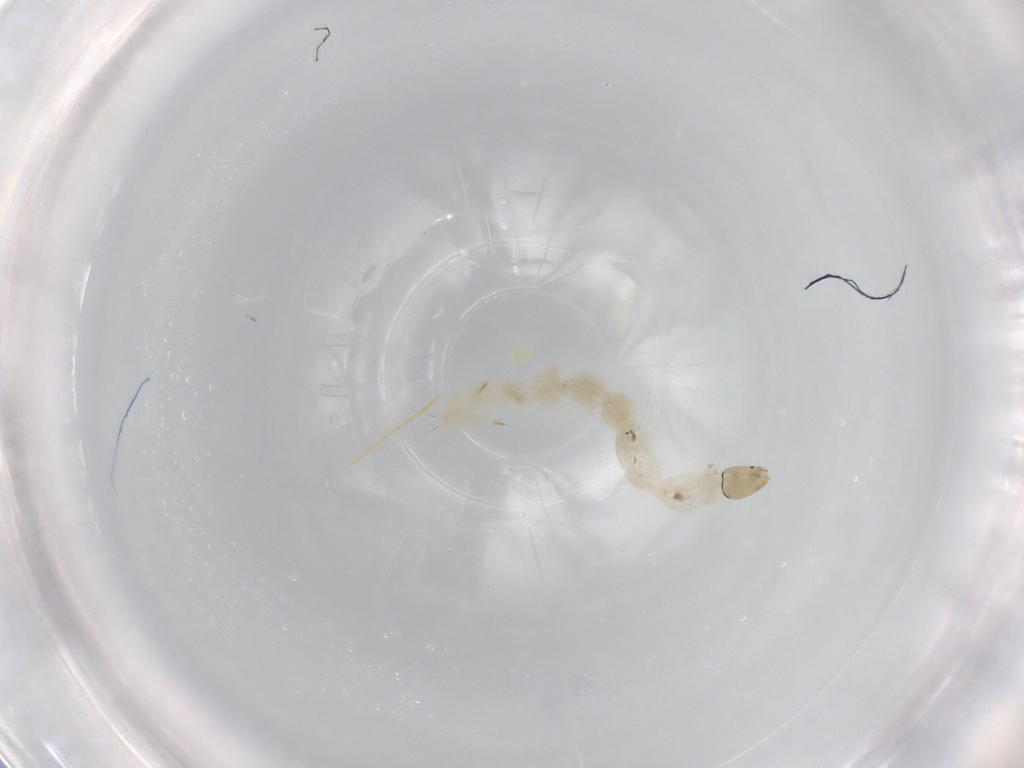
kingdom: Animalia
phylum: Arthropoda
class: Insecta
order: Diptera
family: Chironomidae
